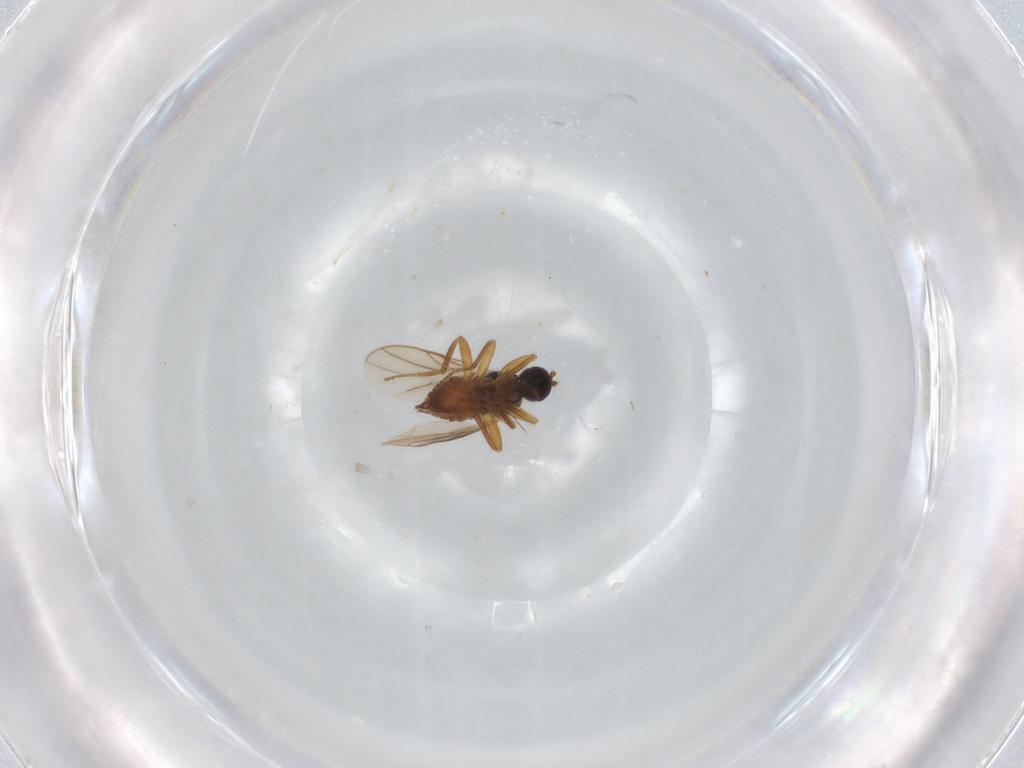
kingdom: Animalia
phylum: Arthropoda
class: Insecta
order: Diptera
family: Cecidomyiidae
